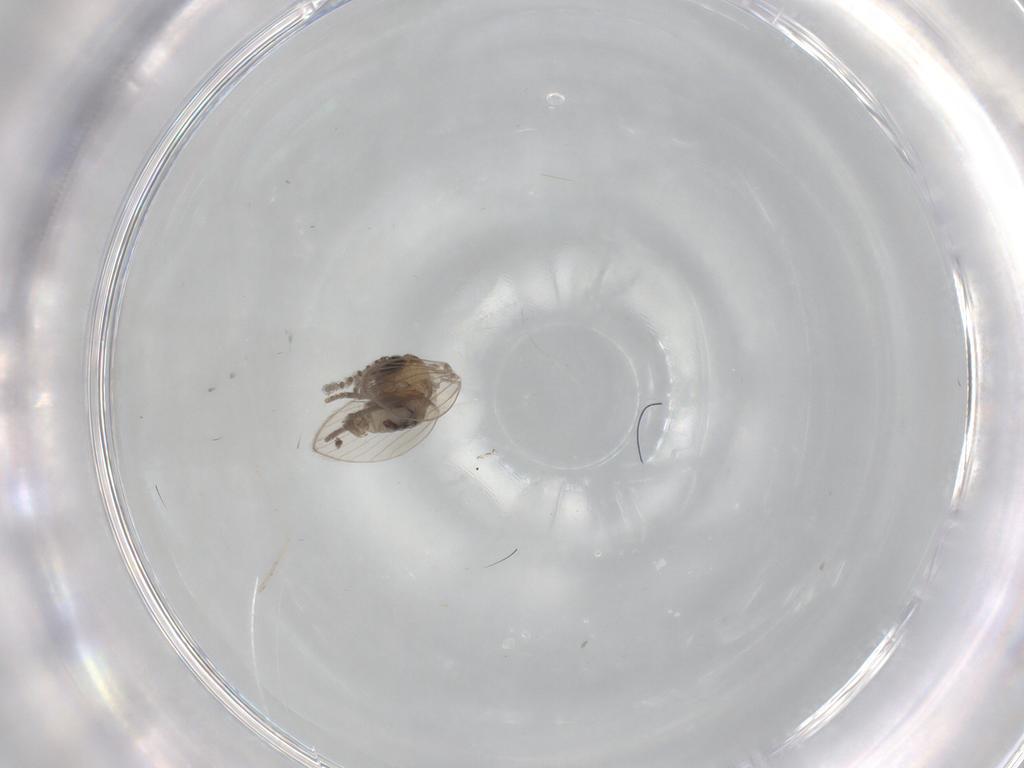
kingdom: Animalia
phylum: Arthropoda
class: Insecta
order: Diptera
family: Psychodidae
